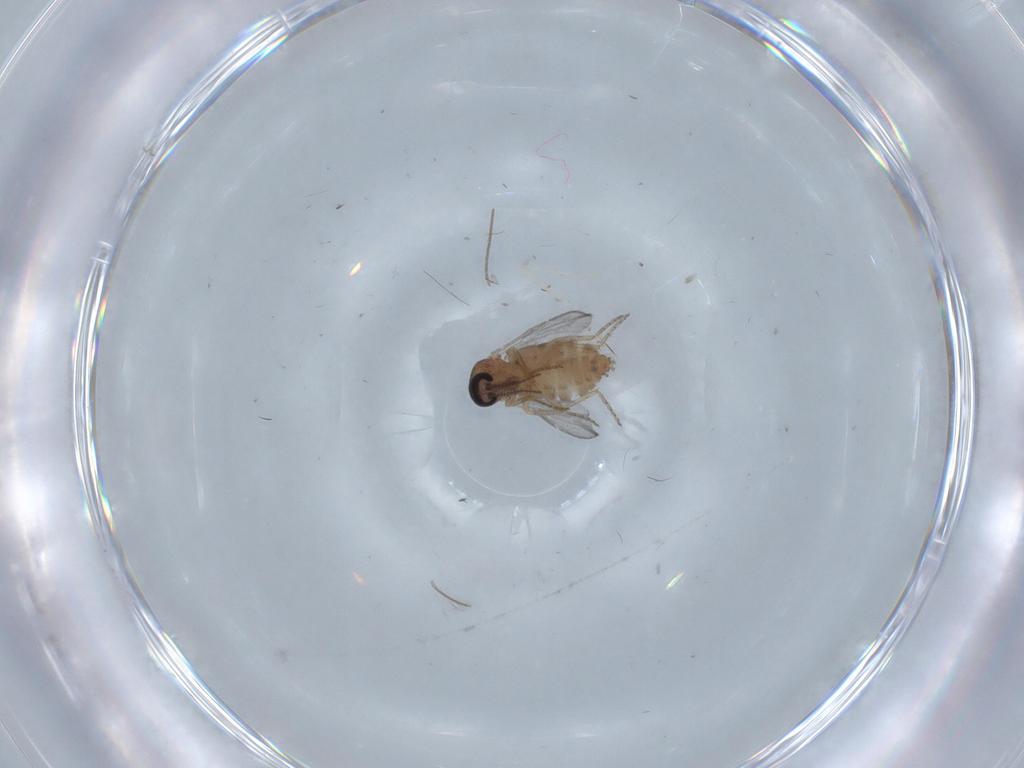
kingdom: Animalia
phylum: Arthropoda
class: Insecta
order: Diptera
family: Ceratopogonidae
